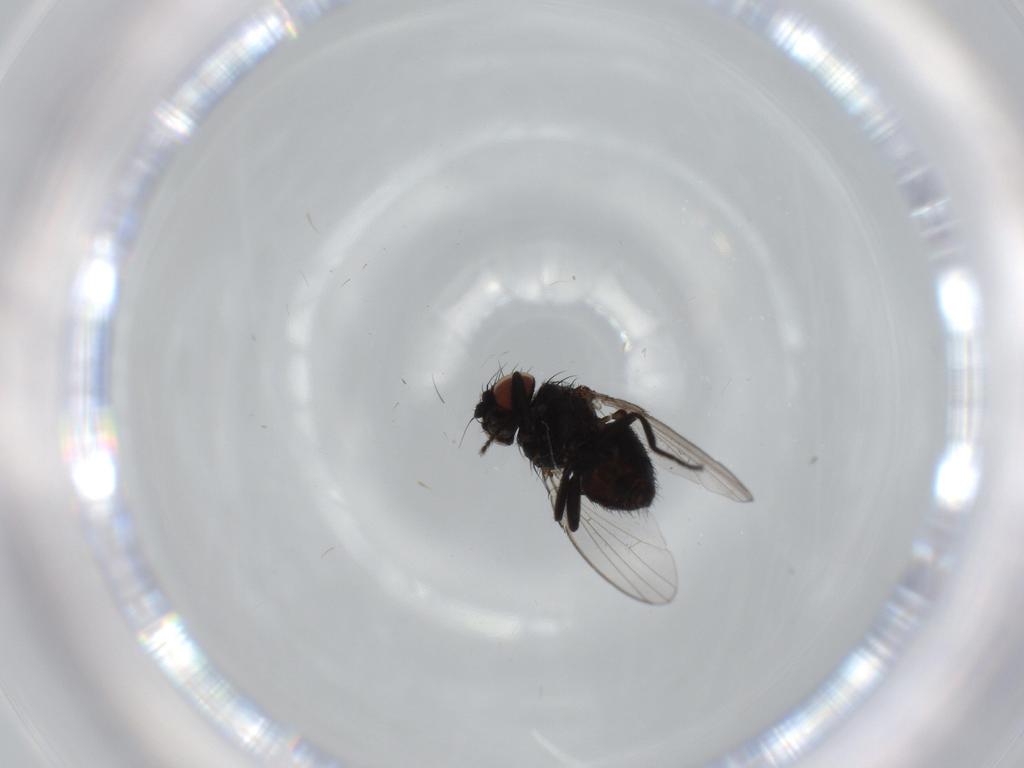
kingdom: Animalia
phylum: Arthropoda
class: Insecta
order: Diptera
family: Milichiidae
